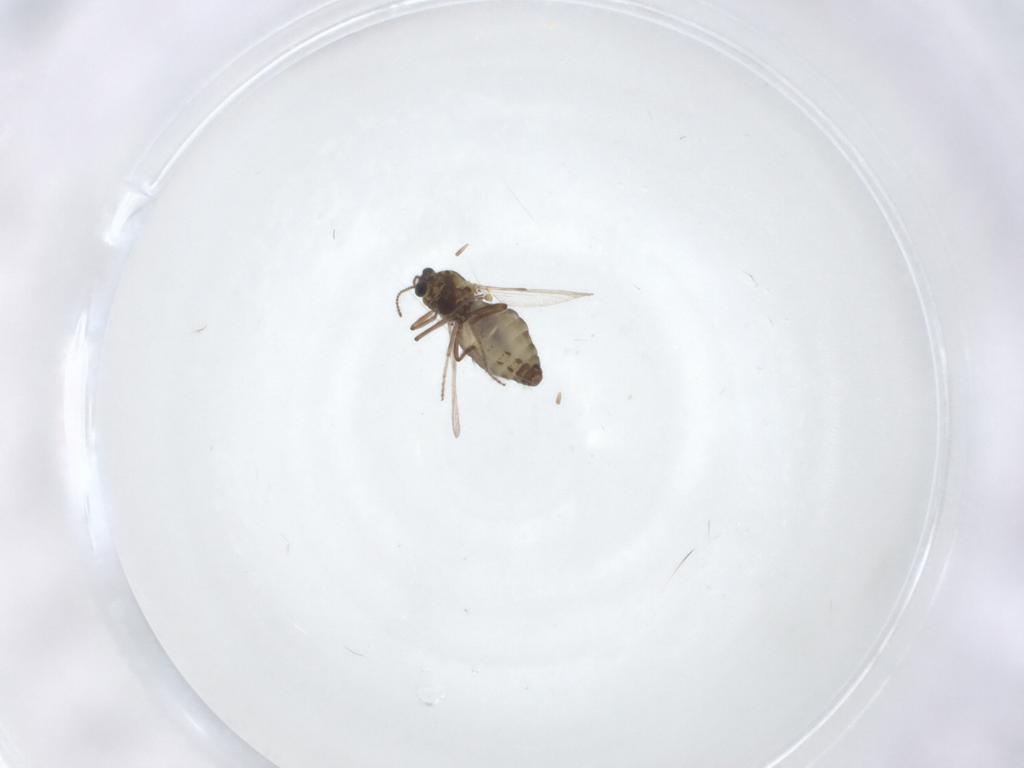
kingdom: Animalia
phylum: Arthropoda
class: Insecta
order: Diptera
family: Ceratopogonidae
